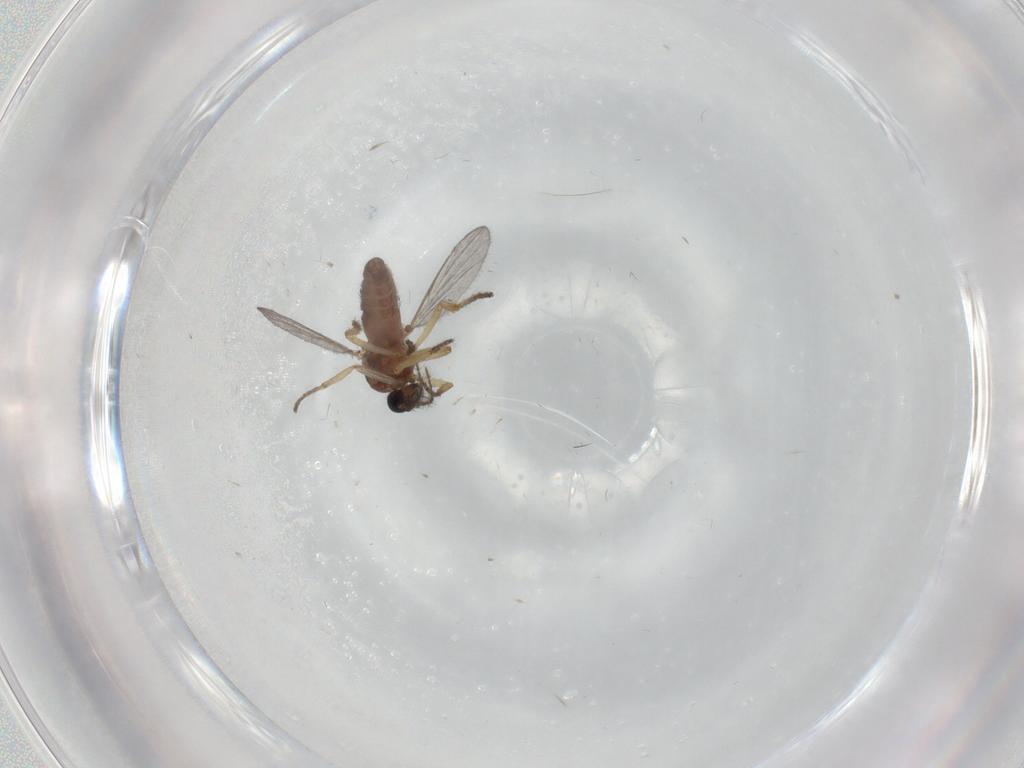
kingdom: Animalia
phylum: Arthropoda
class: Insecta
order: Diptera
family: Ceratopogonidae
